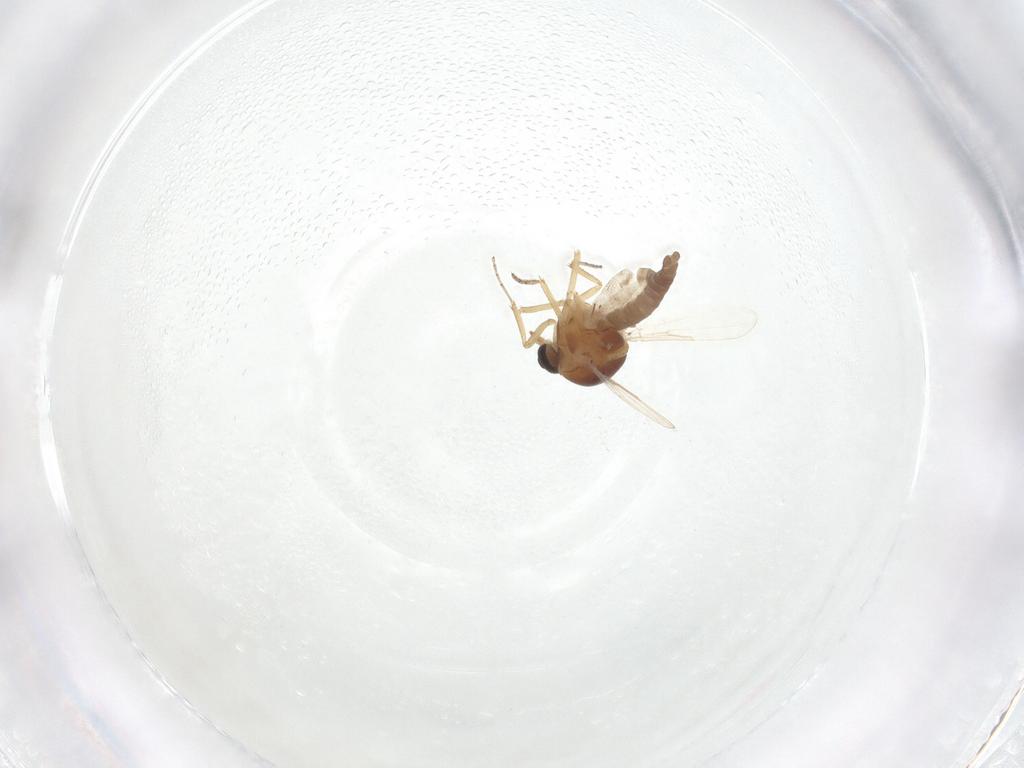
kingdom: Animalia
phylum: Arthropoda
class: Insecta
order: Diptera
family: Ceratopogonidae
